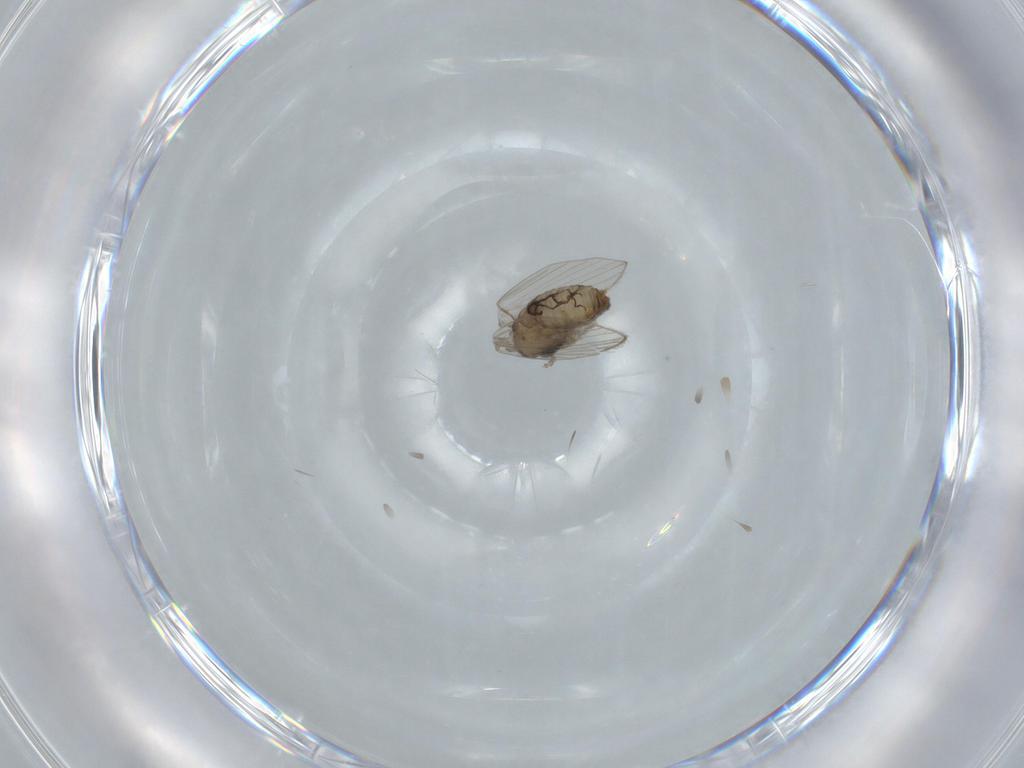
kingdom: Animalia
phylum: Arthropoda
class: Insecta
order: Diptera
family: Psychodidae
